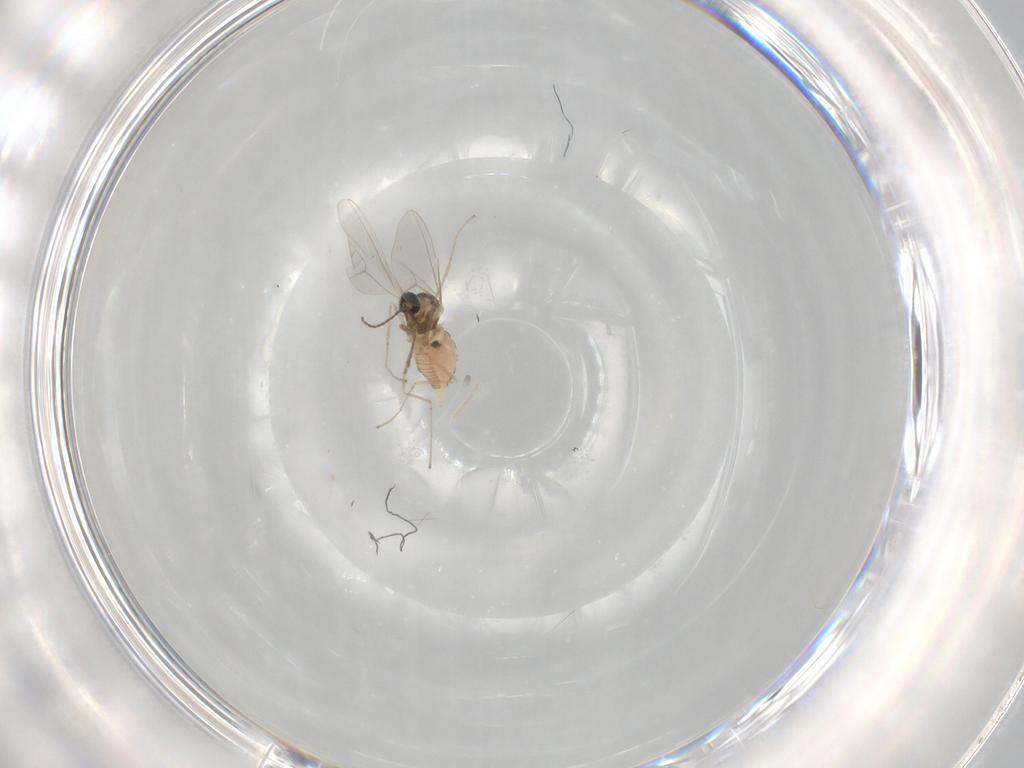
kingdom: Animalia
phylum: Arthropoda
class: Insecta
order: Diptera
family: Cecidomyiidae
